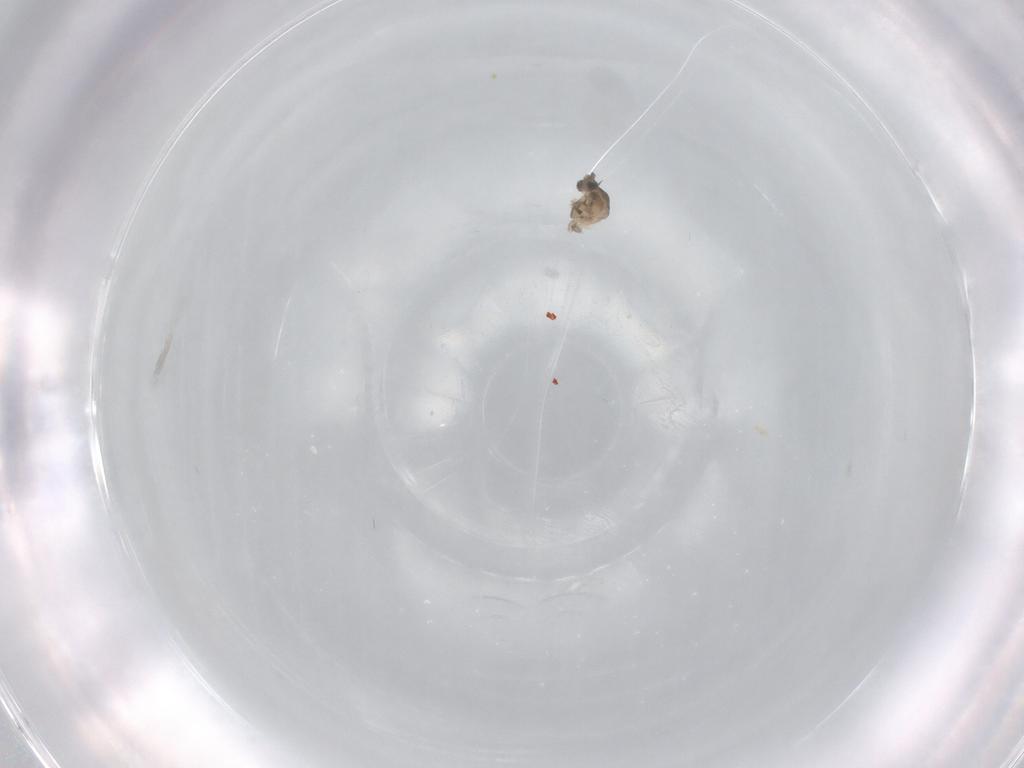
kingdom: Animalia
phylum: Arthropoda
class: Insecta
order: Diptera
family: Cecidomyiidae
